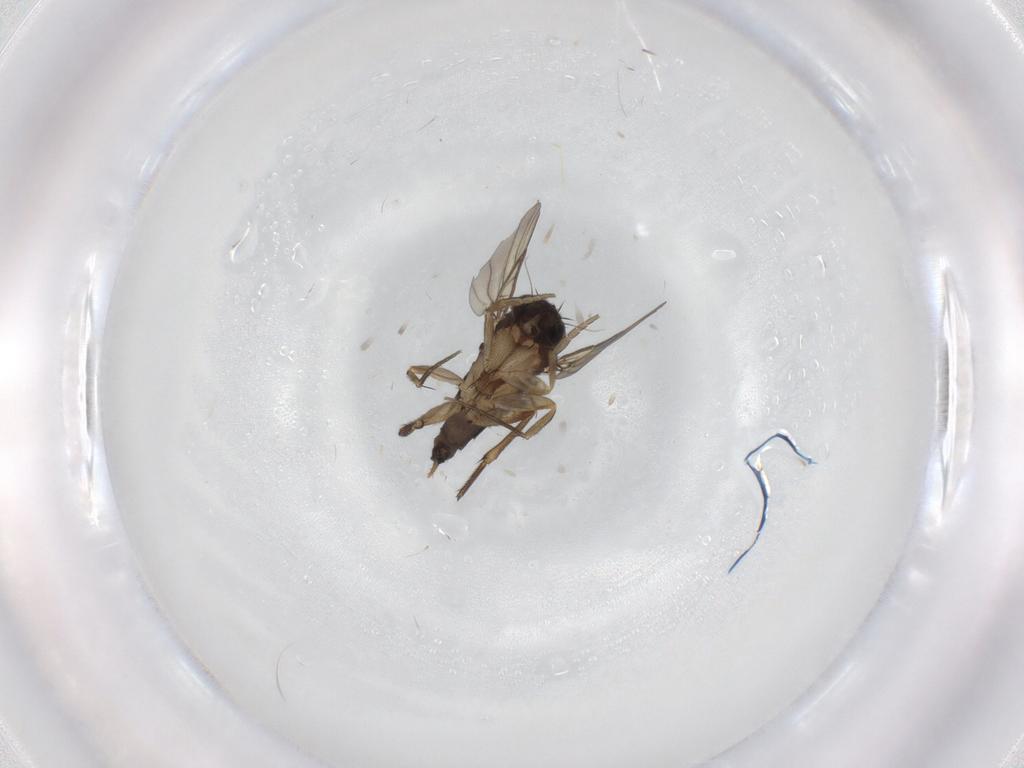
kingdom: Animalia
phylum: Arthropoda
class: Insecta
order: Diptera
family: Phoridae
